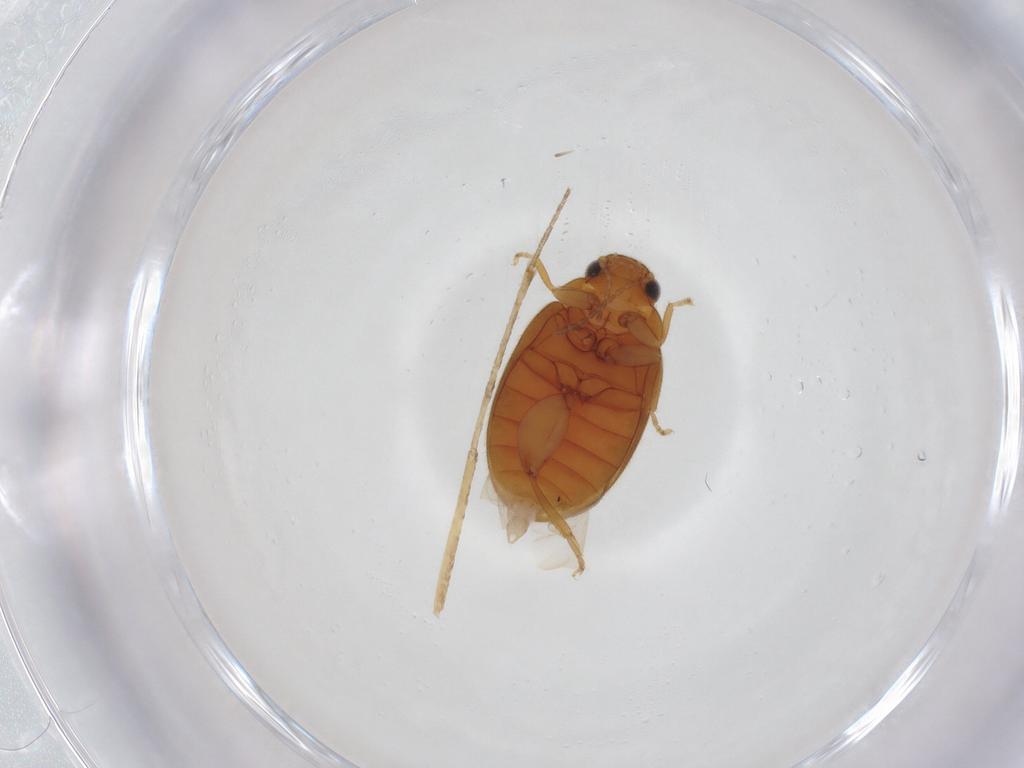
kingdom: Animalia
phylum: Arthropoda
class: Insecta
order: Coleoptera
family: Scirtidae
